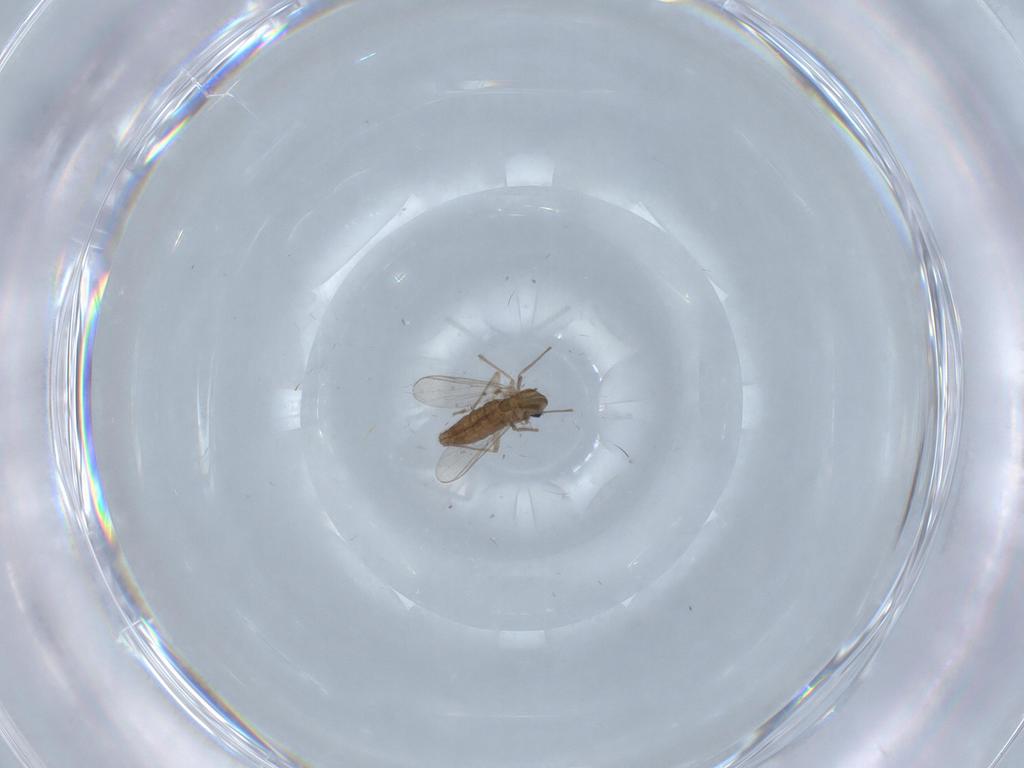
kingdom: Animalia
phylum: Arthropoda
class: Insecta
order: Diptera
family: Chironomidae
